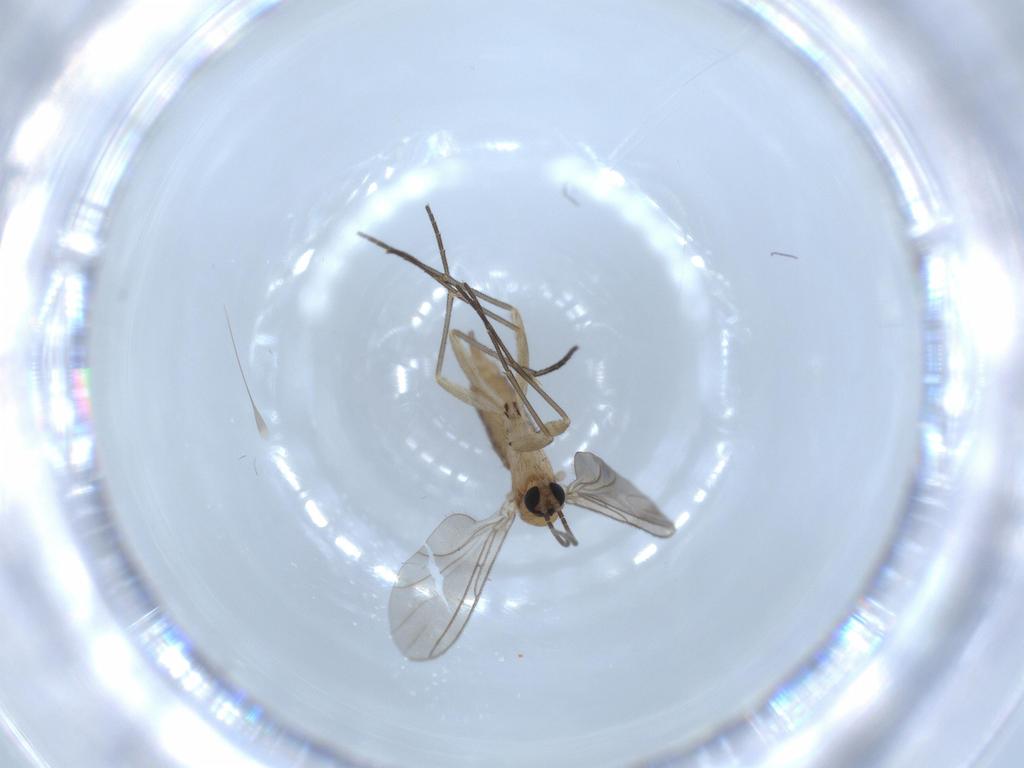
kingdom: Animalia
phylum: Arthropoda
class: Insecta
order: Diptera
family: Sciaridae
